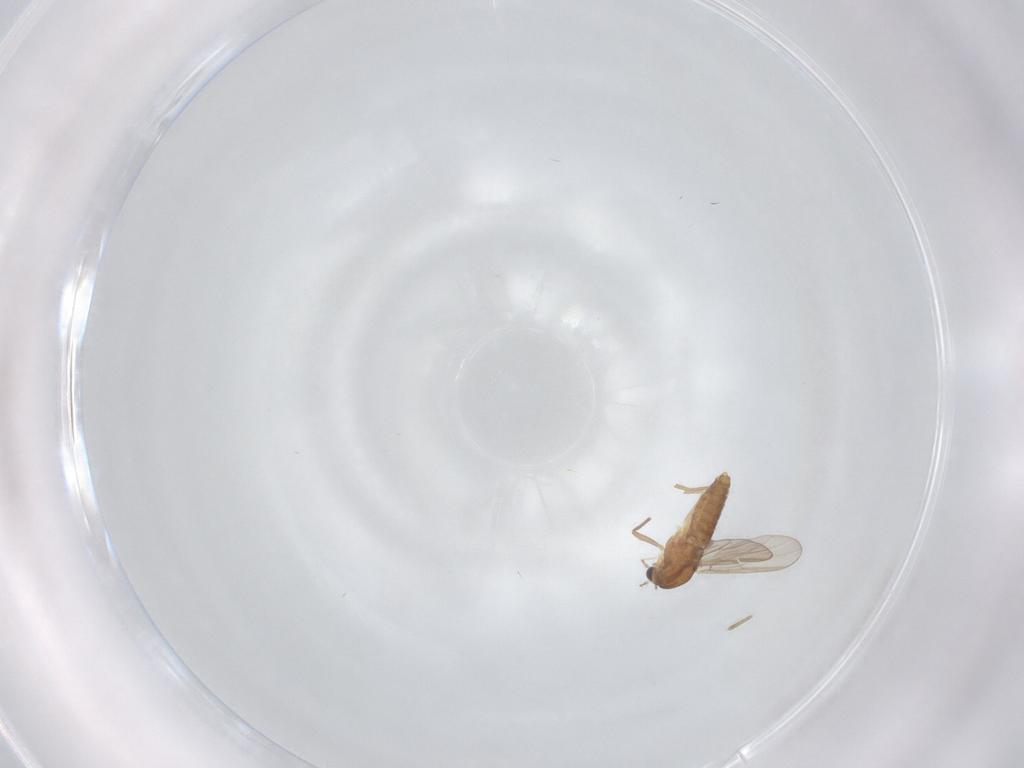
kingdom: Animalia
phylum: Arthropoda
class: Insecta
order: Diptera
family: Chironomidae
